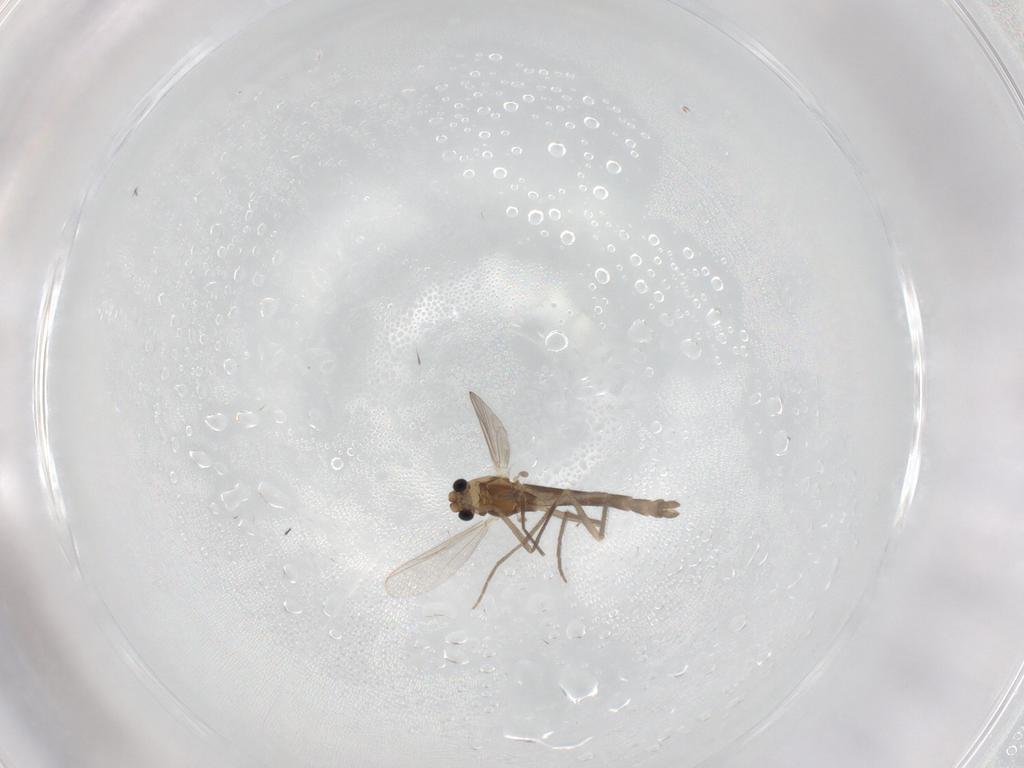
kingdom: Animalia
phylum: Arthropoda
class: Insecta
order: Diptera
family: Chironomidae
